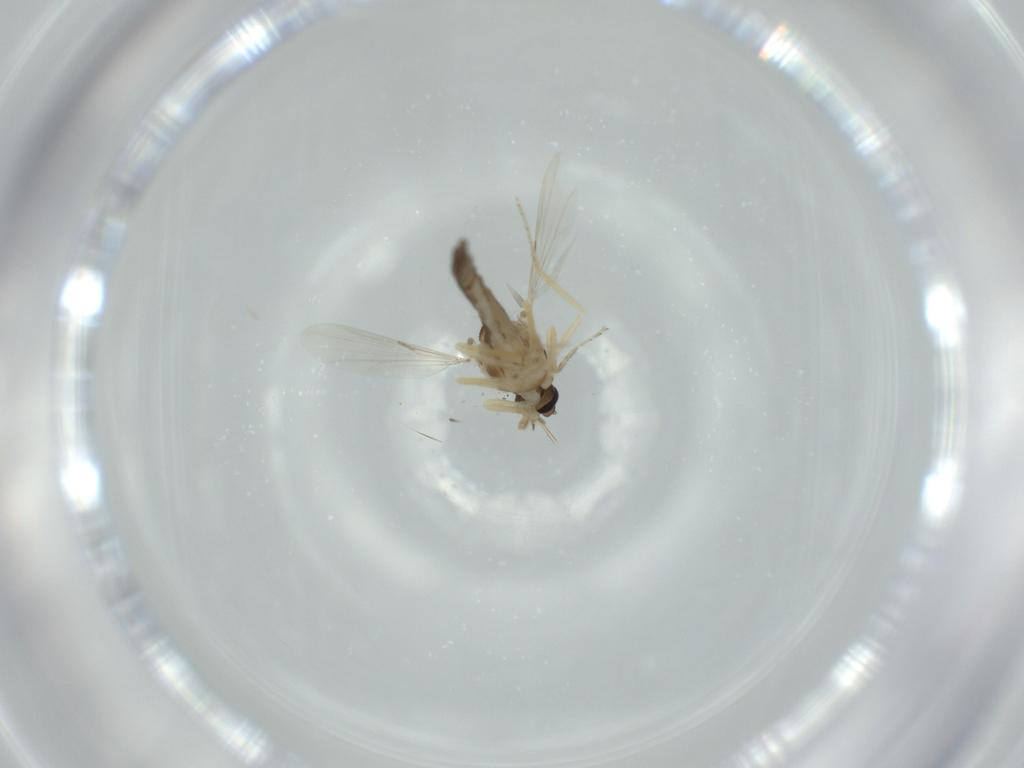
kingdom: Animalia
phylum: Arthropoda
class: Insecta
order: Diptera
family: Ceratopogonidae
